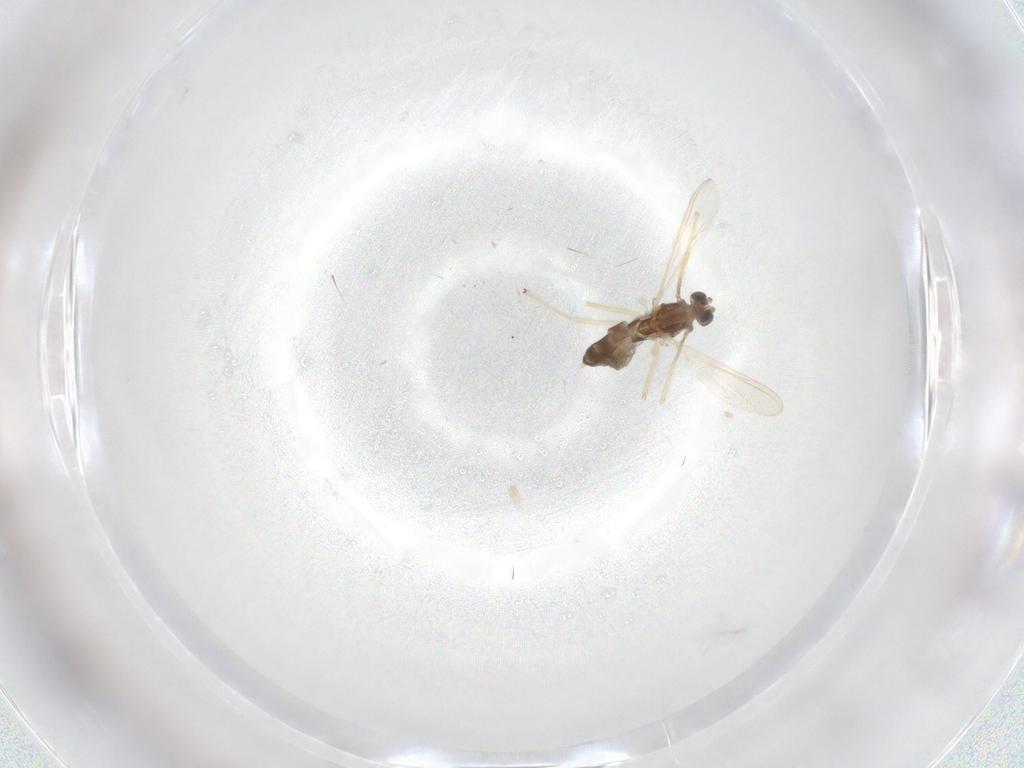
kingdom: Animalia
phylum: Arthropoda
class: Insecta
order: Diptera
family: Chironomidae
